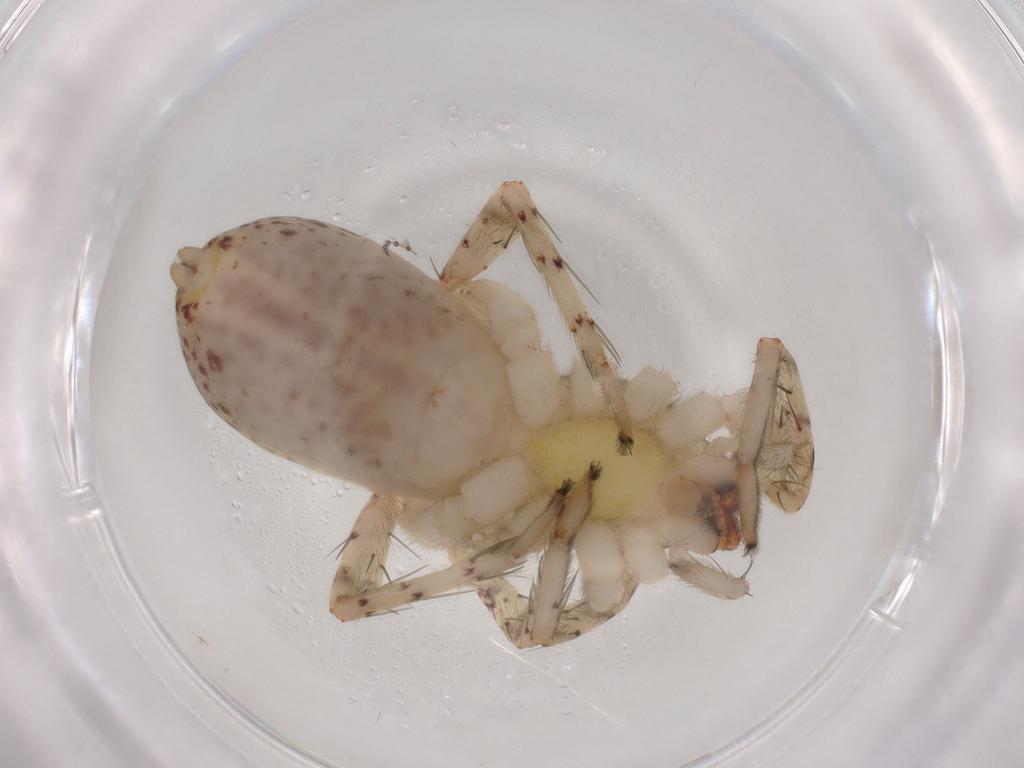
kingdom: Animalia
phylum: Arthropoda
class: Arachnida
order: Araneae
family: Anyphaenidae
